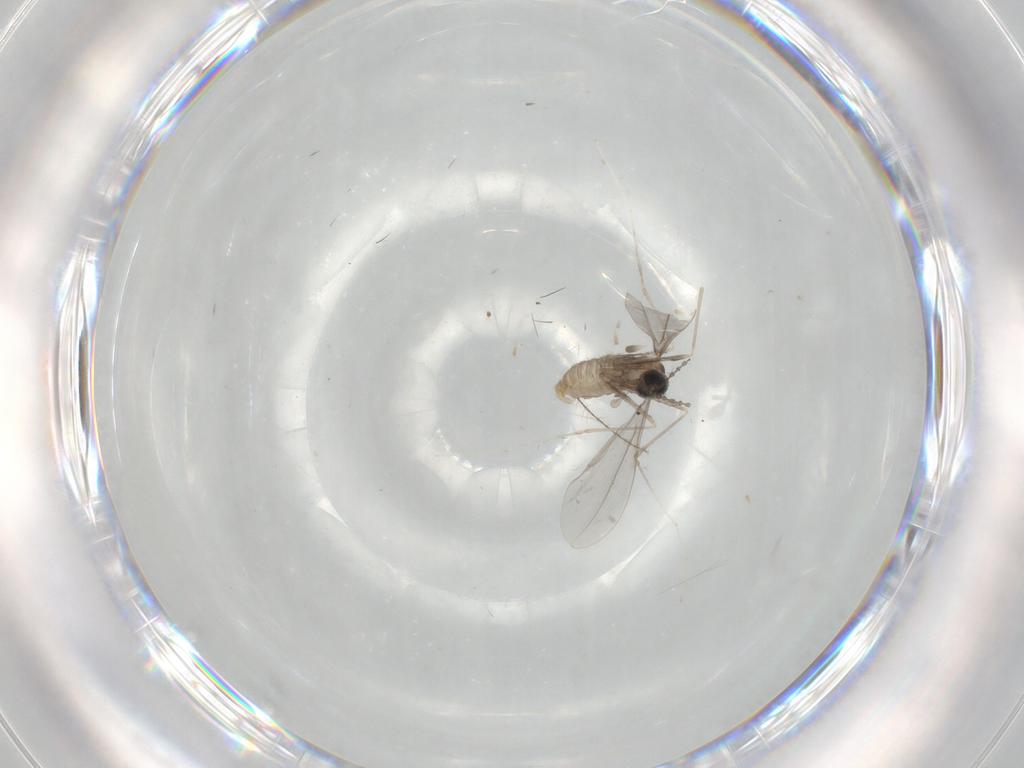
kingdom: Animalia
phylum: Arthropoda
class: Insecta
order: Diptera
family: Cecidomyiidae
